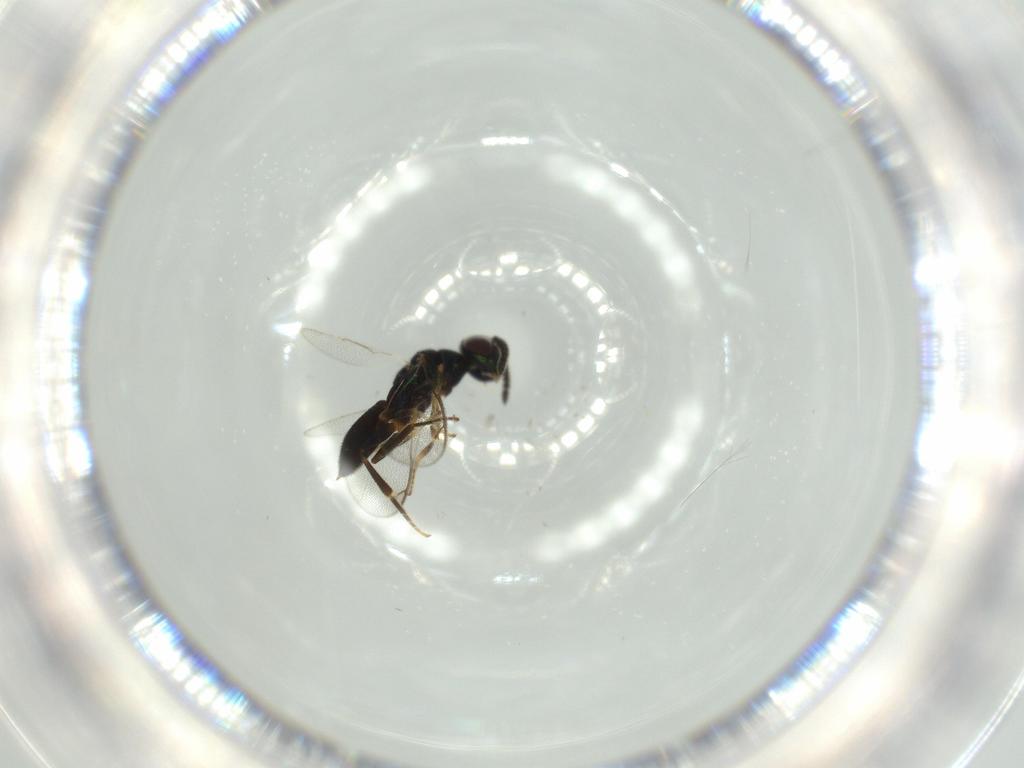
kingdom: Animalia
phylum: Arthropoda
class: Insecta
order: Hymenoptera
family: Cleonyminae
